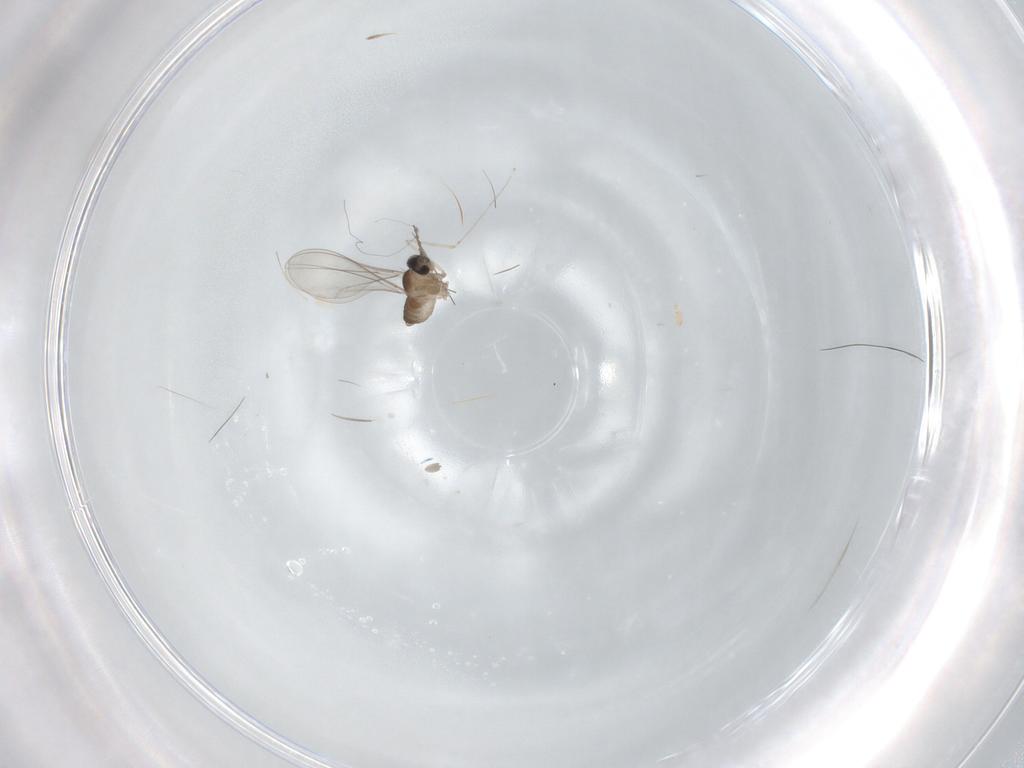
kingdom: Animalia
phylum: Arthropoda
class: Insecta
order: Diptera
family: Cecidomyiidae
